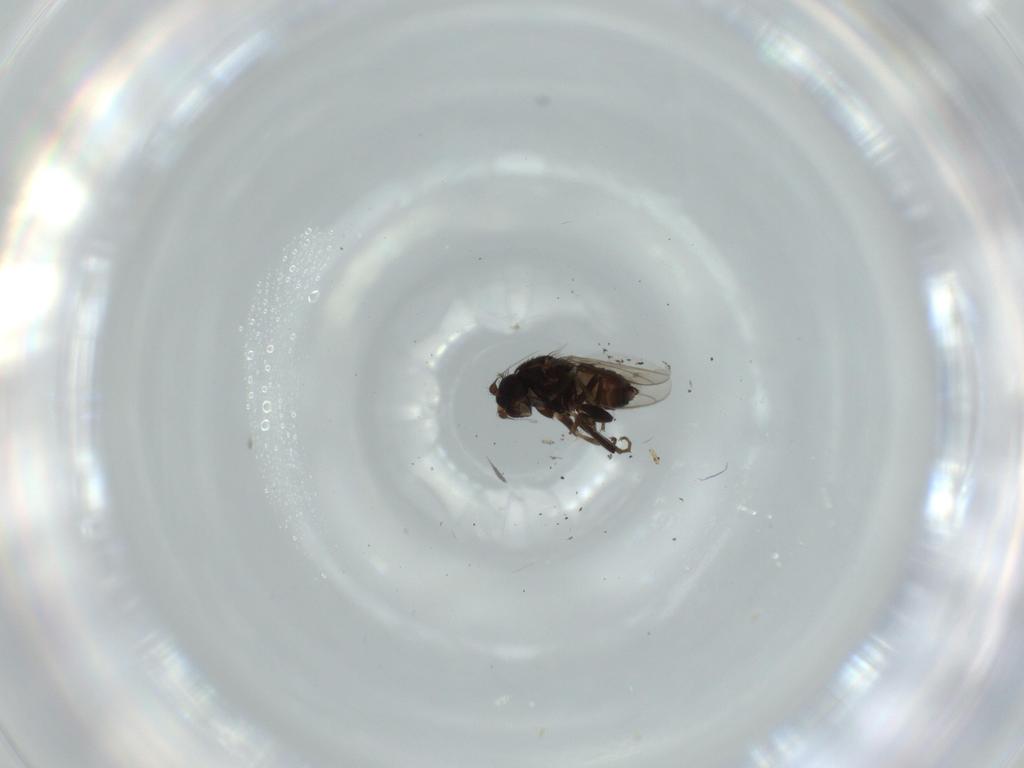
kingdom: Animalia
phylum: Arthropoda
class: Insecta
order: Diptera
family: Sphaeroceridae
